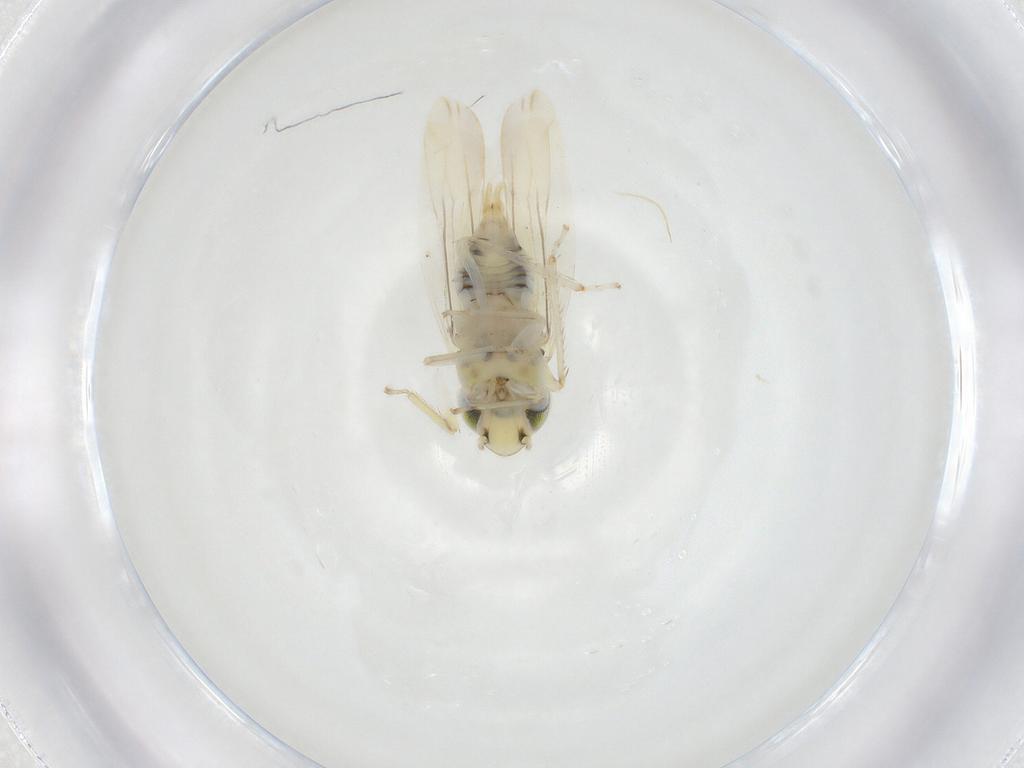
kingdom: Animalia
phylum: Arthropoda
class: Insecta
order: Hemiptera
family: Cicadellidae
